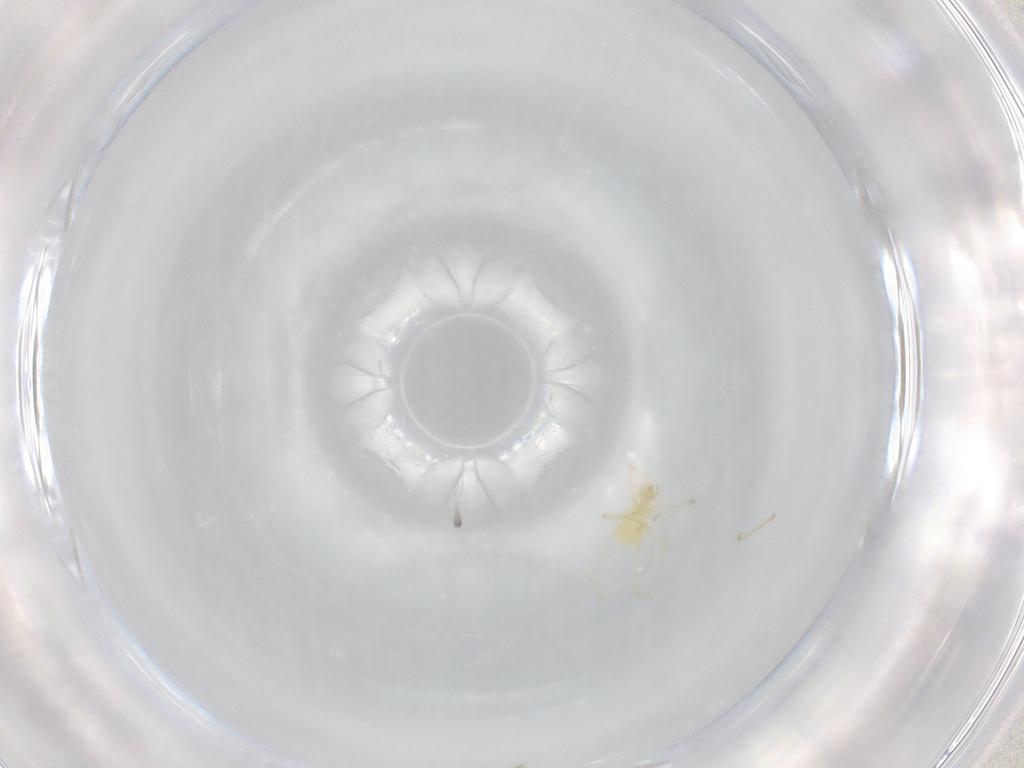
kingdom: Animalia
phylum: Arthropoda
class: Arachnida
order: Trombidiformes
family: Erythraeidae
